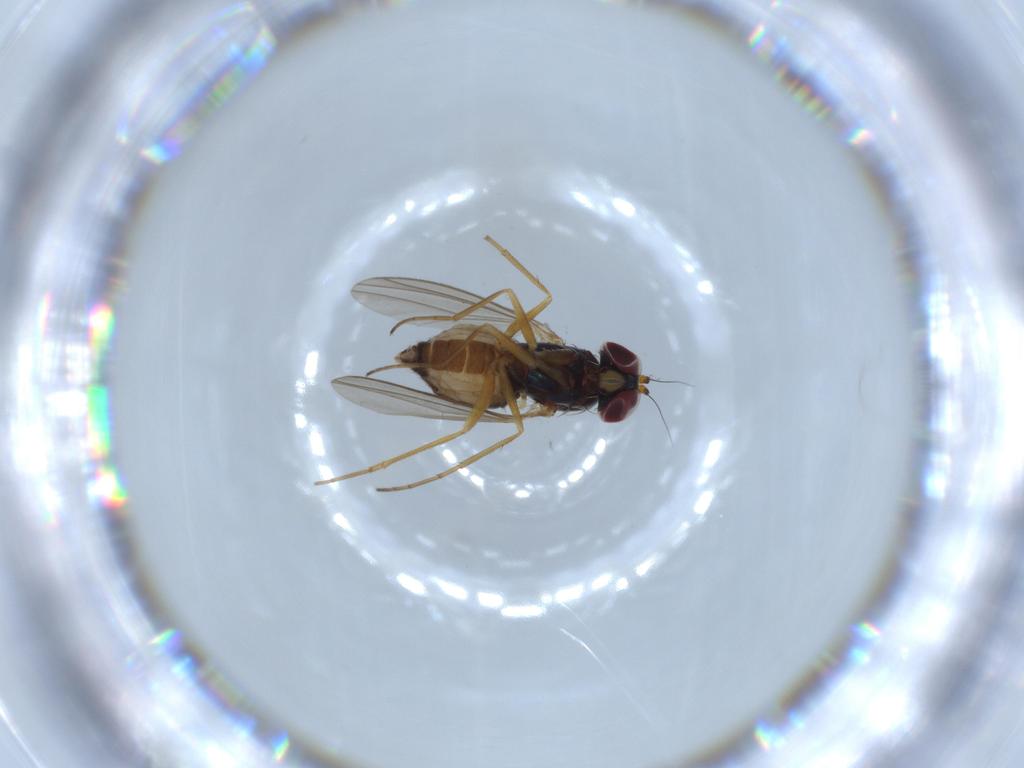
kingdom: Animalia
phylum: Arthropoda
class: Insecta
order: Diptera
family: Dolichopodidae
